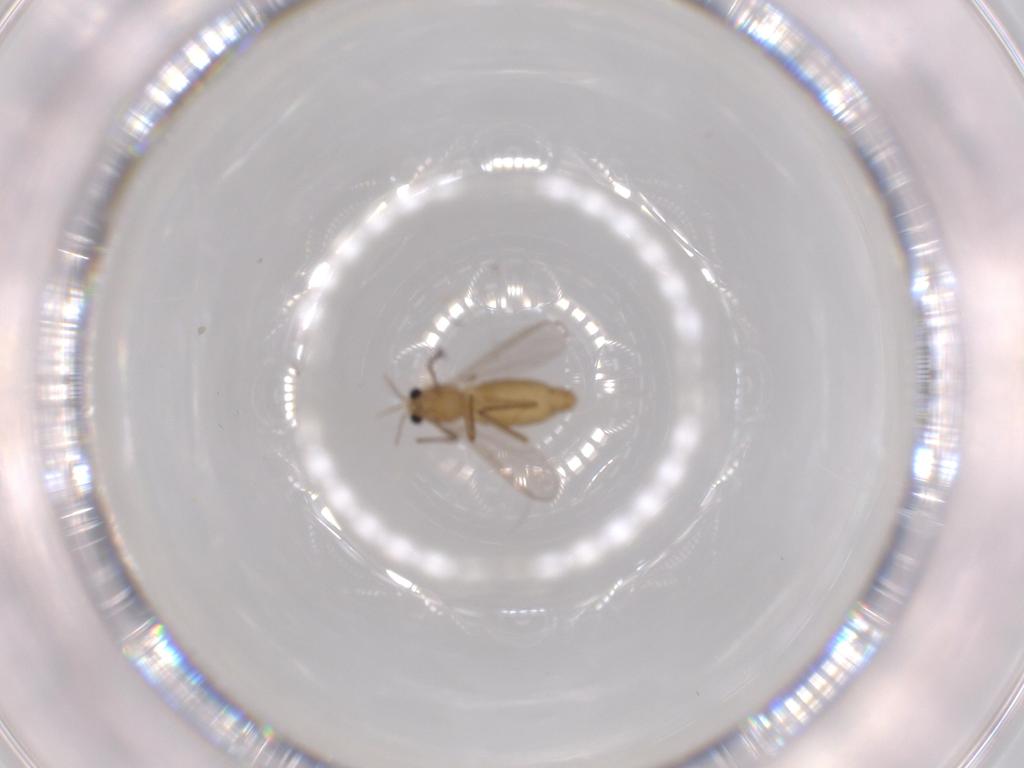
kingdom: Animalia
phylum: Arthropoda
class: Insecta
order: Diptera
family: Chironomidae
